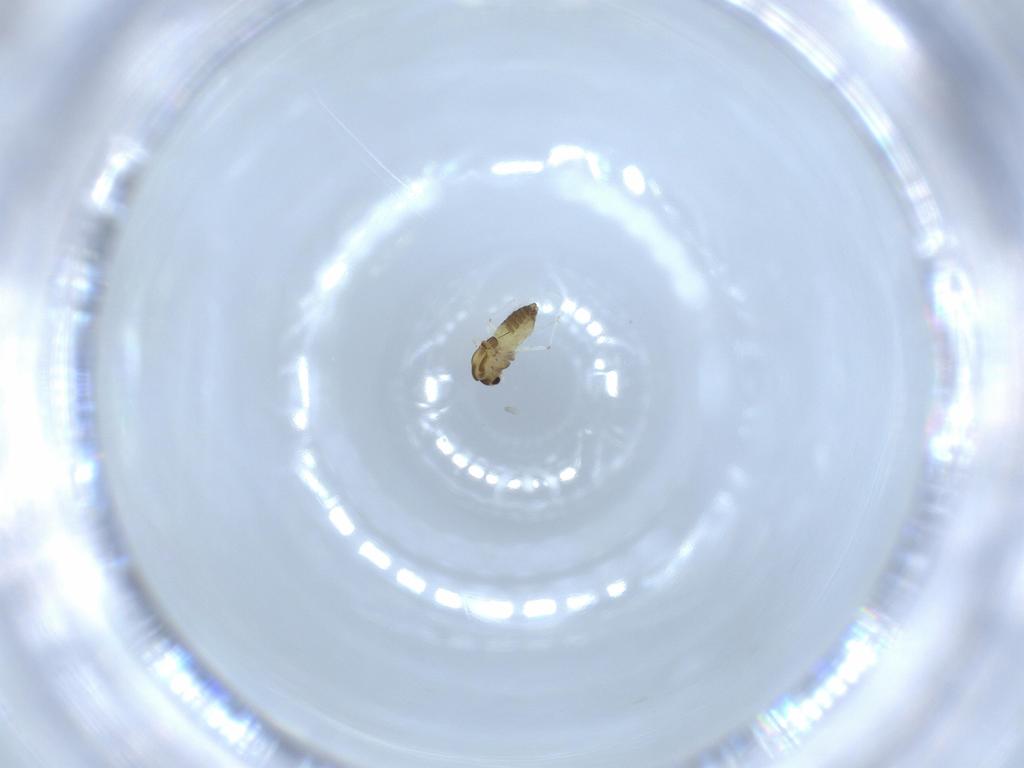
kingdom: Animalia
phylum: Arthropoda
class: Insecta
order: Diptera
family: Chironomidae
